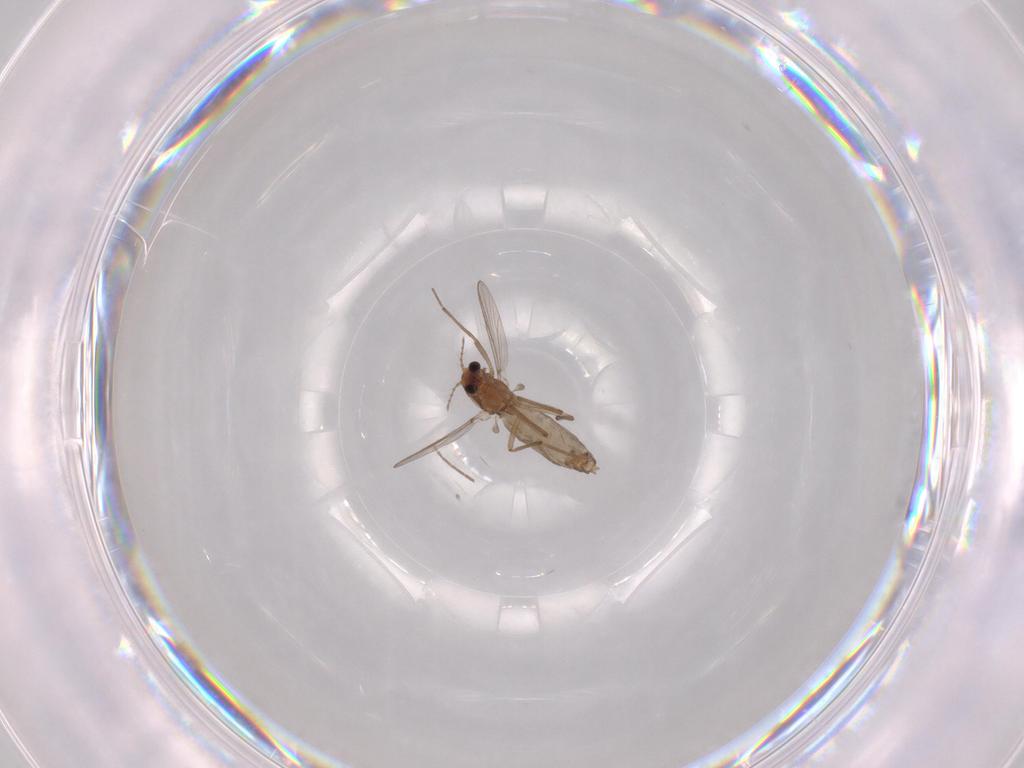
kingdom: Animalia
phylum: Arthropoda
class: Insecta
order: Diptera
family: Chironomidae
